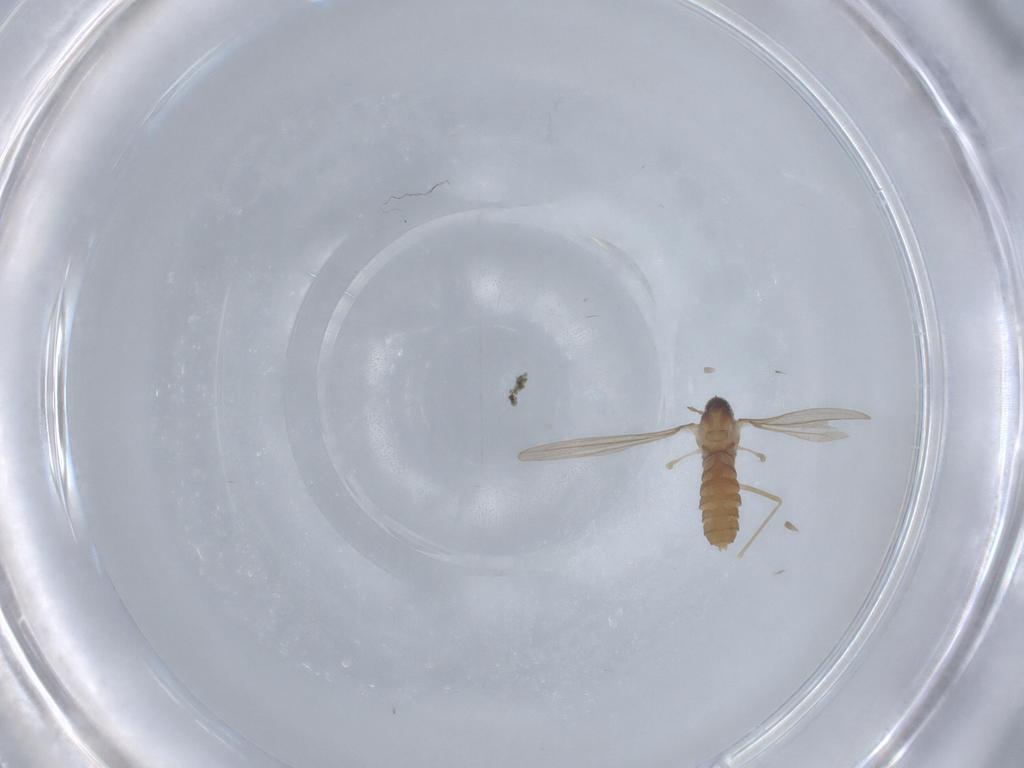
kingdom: Animalia
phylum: Arthropoda
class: Insecta
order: Diptera
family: Cecidomyiidae
